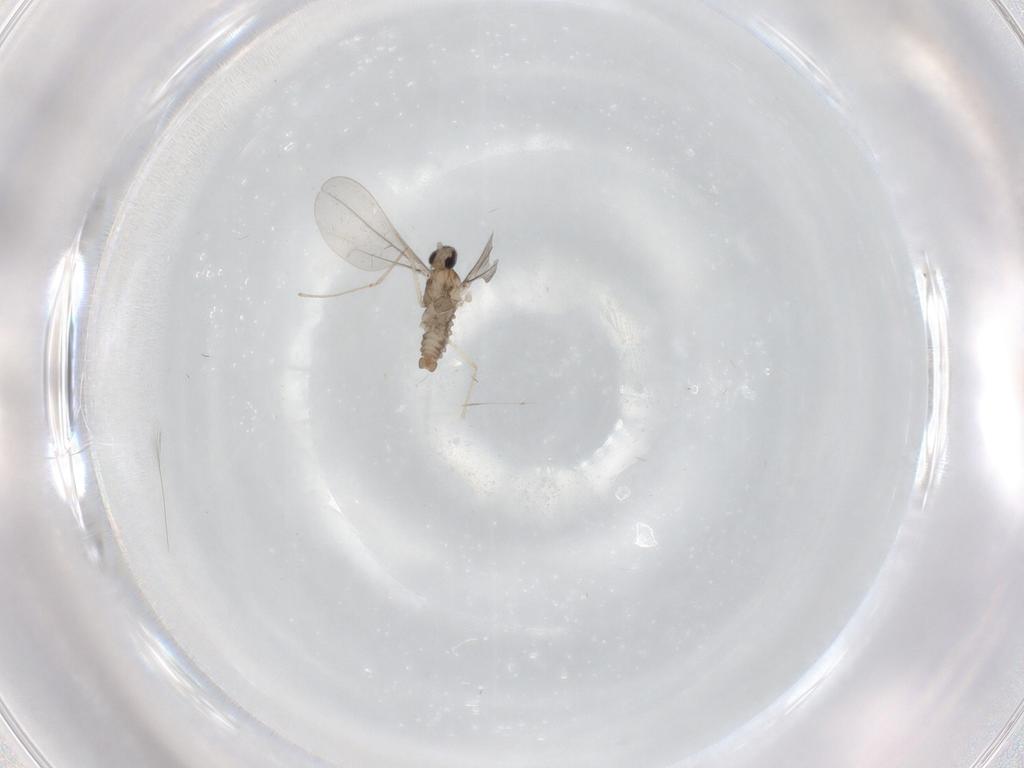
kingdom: Animalia
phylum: Arthropoda
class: Insecta
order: Diptera
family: Cecidomyiidae
